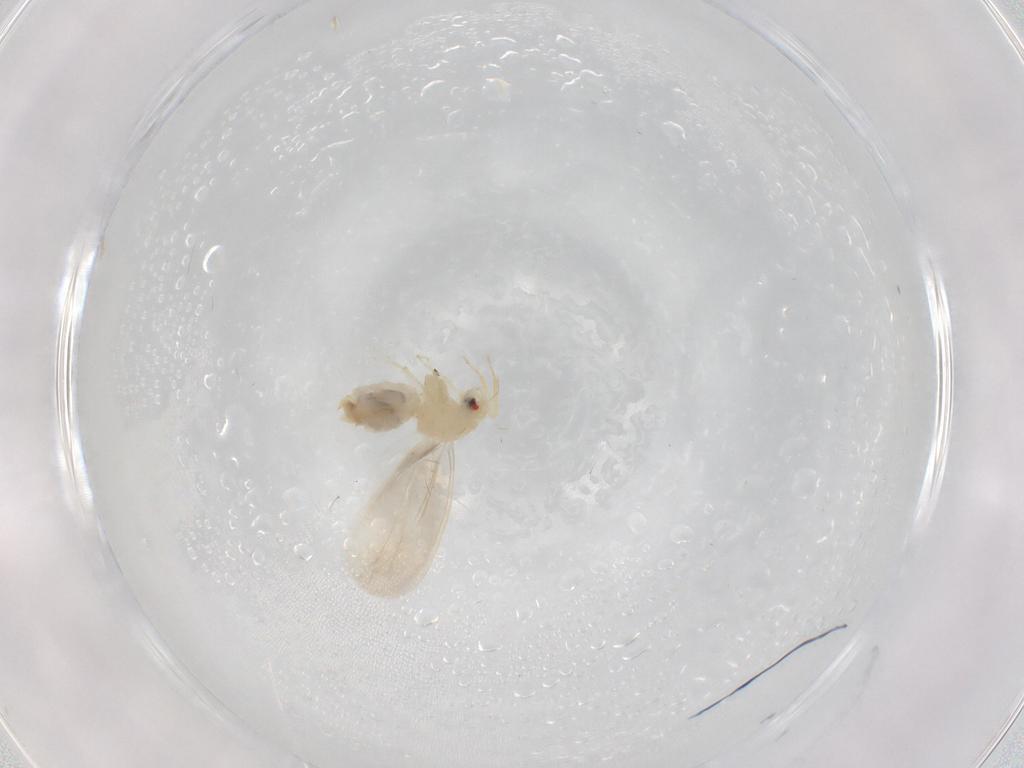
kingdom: Animalia
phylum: Arthropoda
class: Insecta
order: Hemiptera
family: Aleyrodidae
